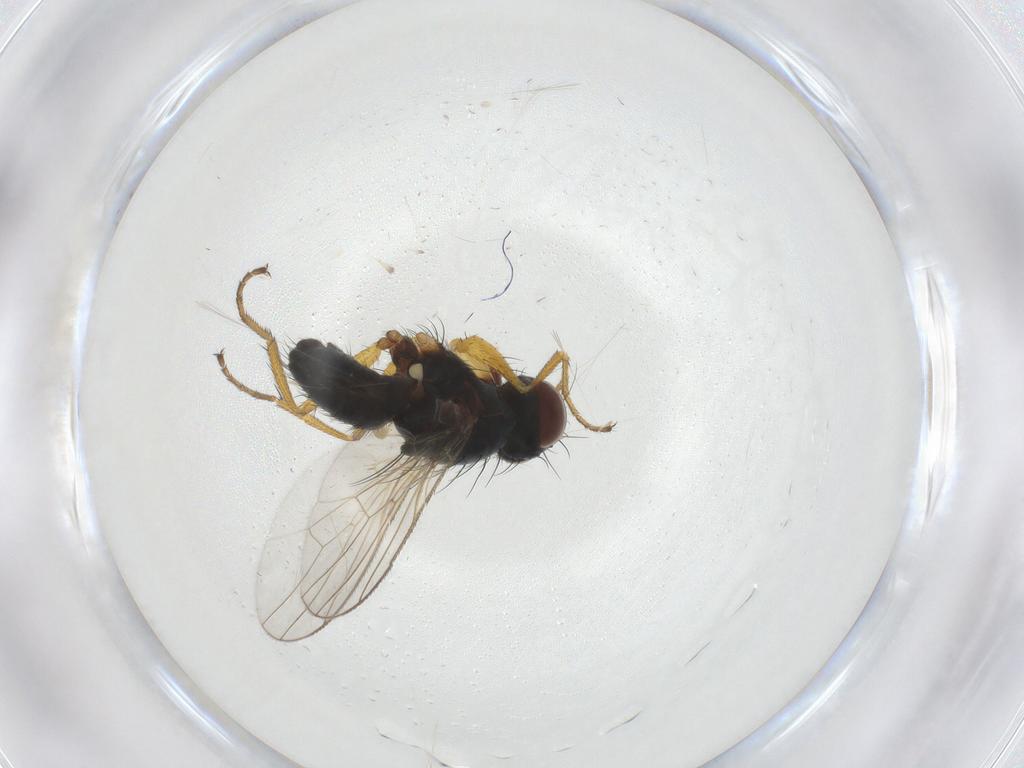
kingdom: Animalia
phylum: Arthropoda
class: Insecta
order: Diptera
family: Muscidae
